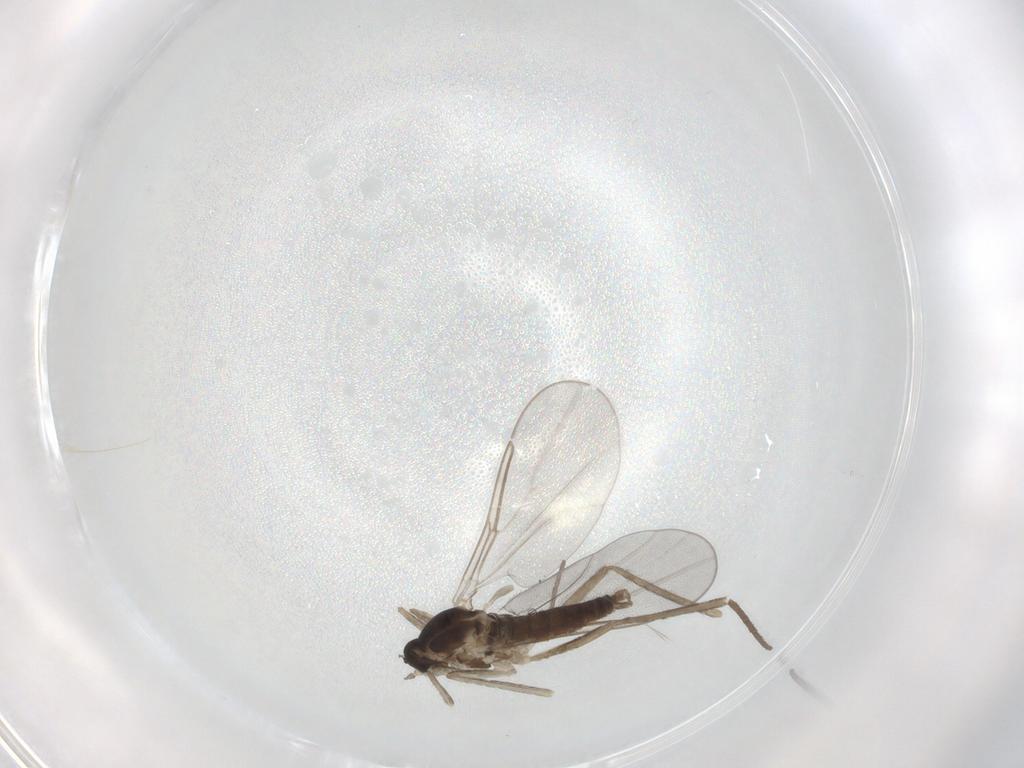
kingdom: Animalia
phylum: Arthropoda
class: Insecta
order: Diptera
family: Cecidomyiidae
